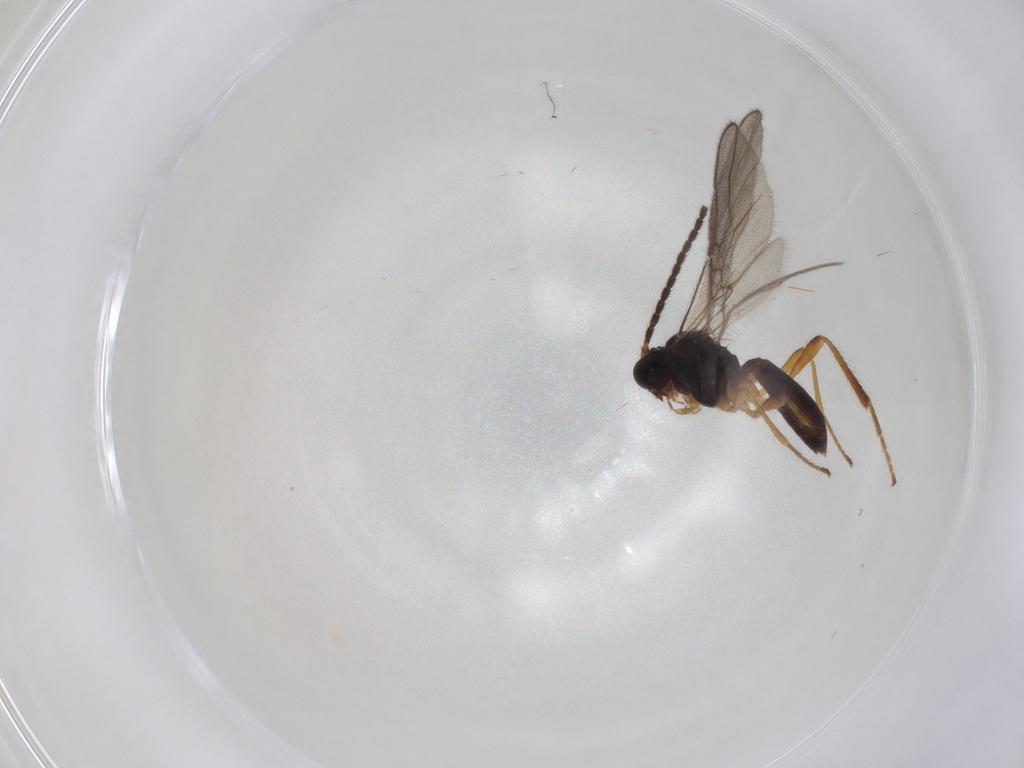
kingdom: Animalia
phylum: Arthropoda
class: Insecta
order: Hymenoptera
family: Braconidae
